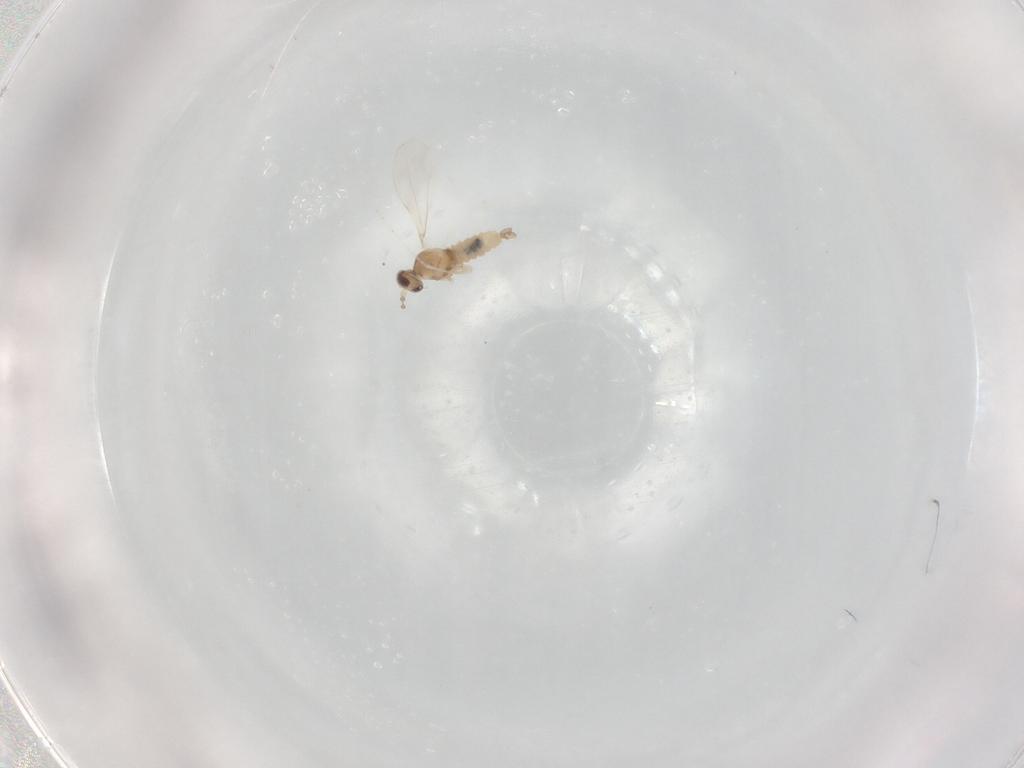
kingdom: Animalia
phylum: Arthropoda
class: Insecta
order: Diptera
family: Cecidomyiidae
